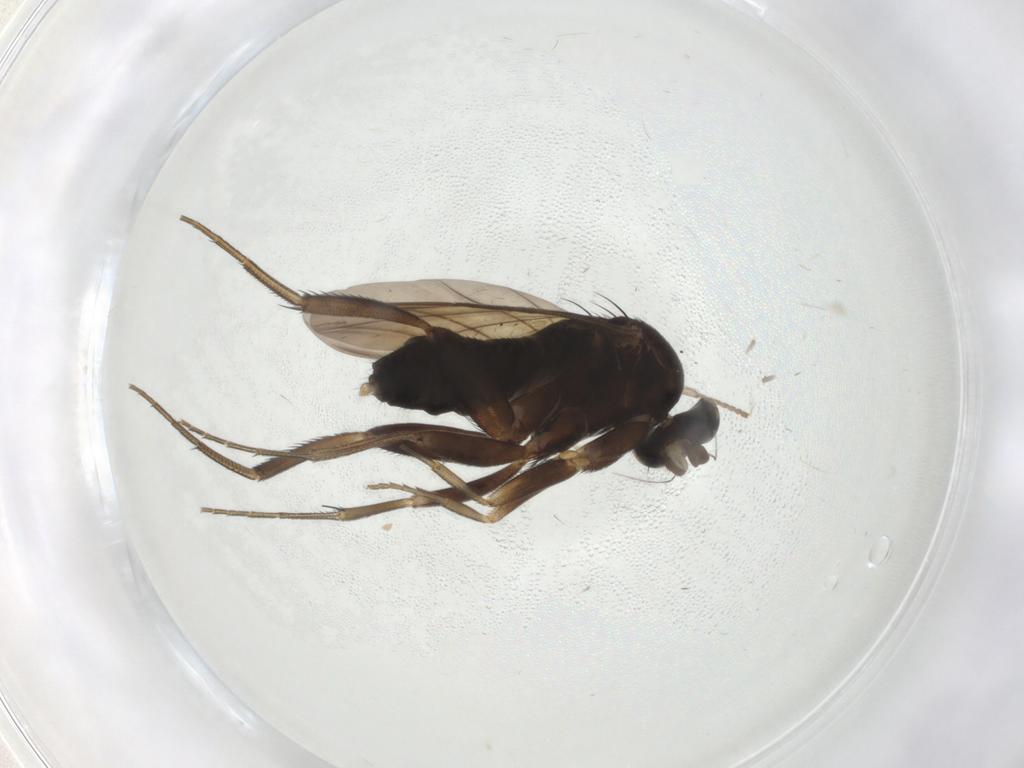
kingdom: Animalia
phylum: Arthropoda
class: Insecta
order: Diptera
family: Phoridae
